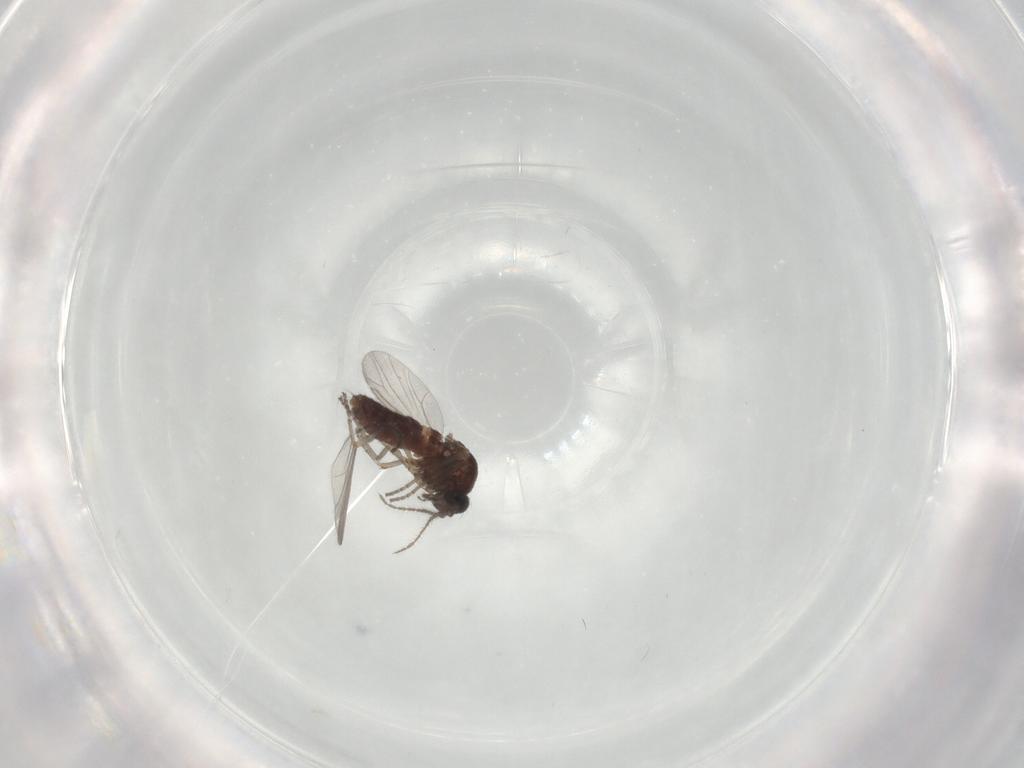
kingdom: Animalia
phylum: Arthropoda
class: Insecta
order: Diptera
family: Ceratopogonidae
